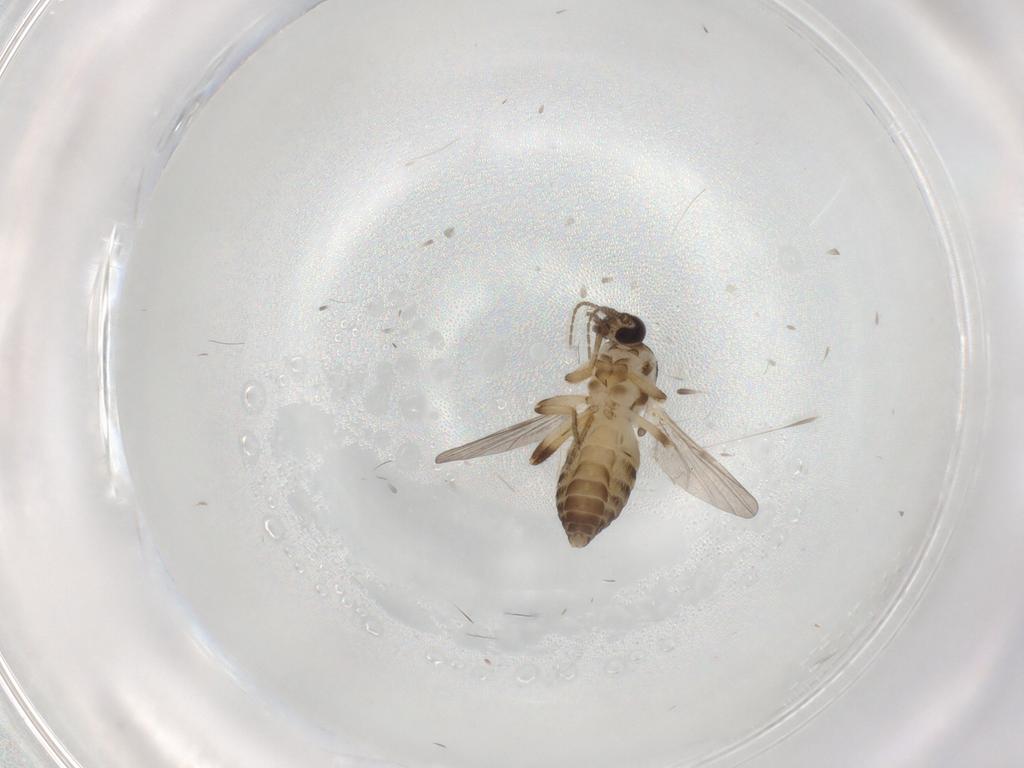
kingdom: Animalia
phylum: Arthropoda
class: Insecta
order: Diptera
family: Ceratopogonidae
